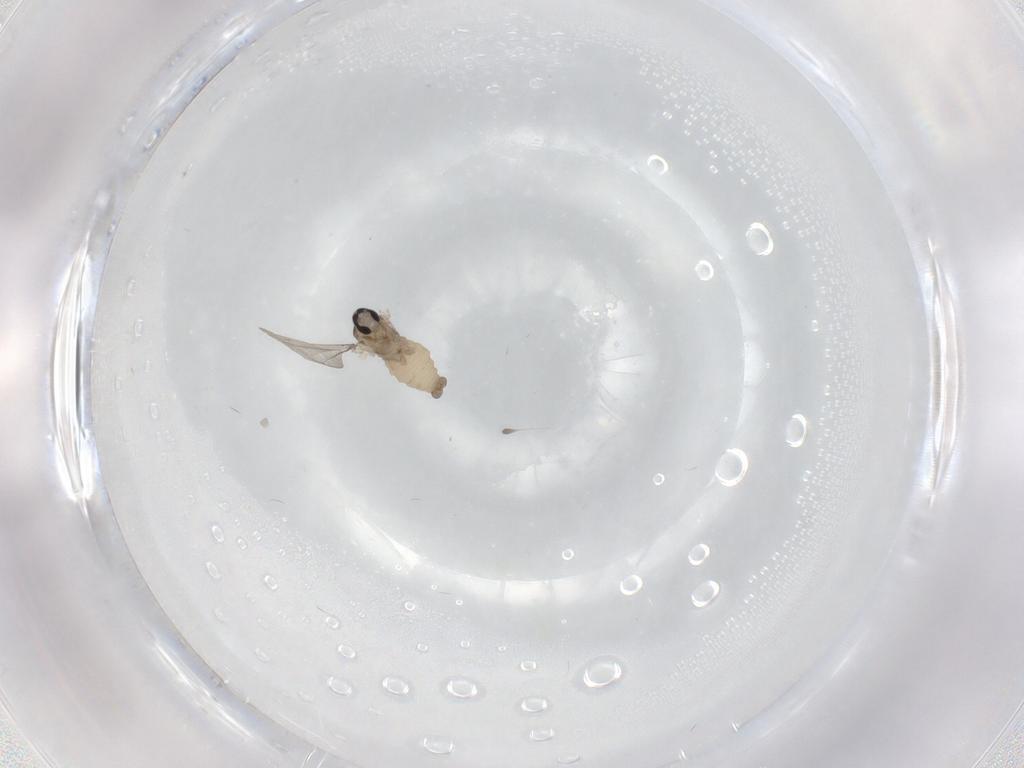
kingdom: Animalia
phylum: Arthropoda
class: Insecta
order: Diptera
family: Cecidomyiidae
